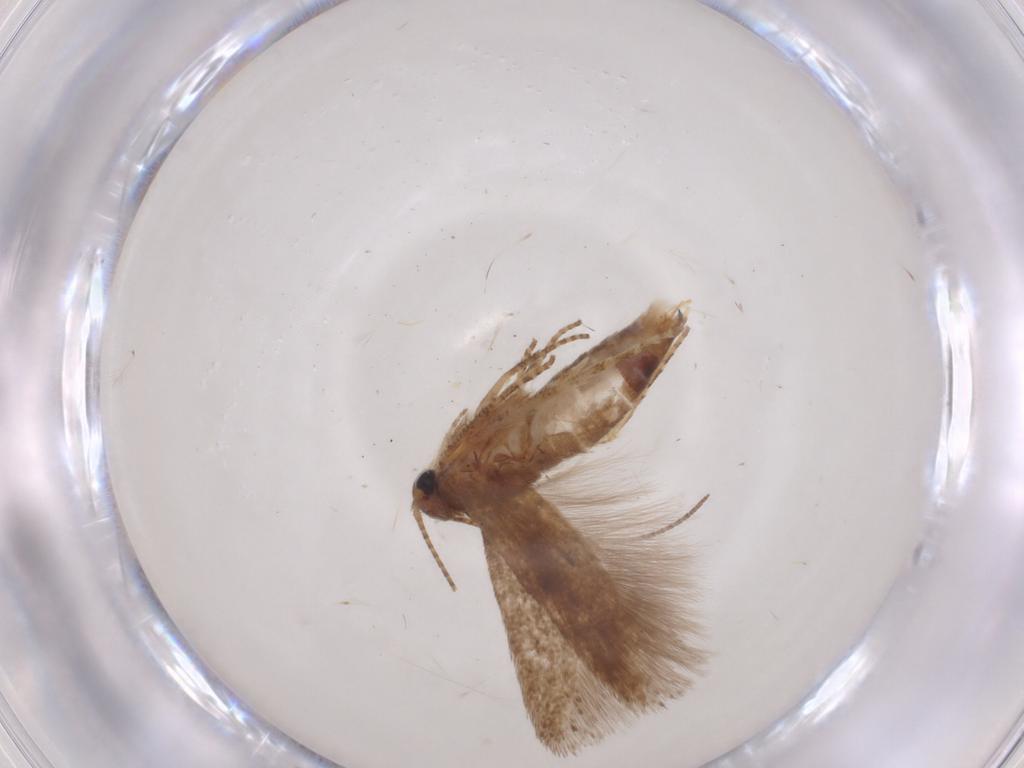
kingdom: Animalia
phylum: Arthropoda
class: Insecta
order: Lepidoptera
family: Gelechiidae
